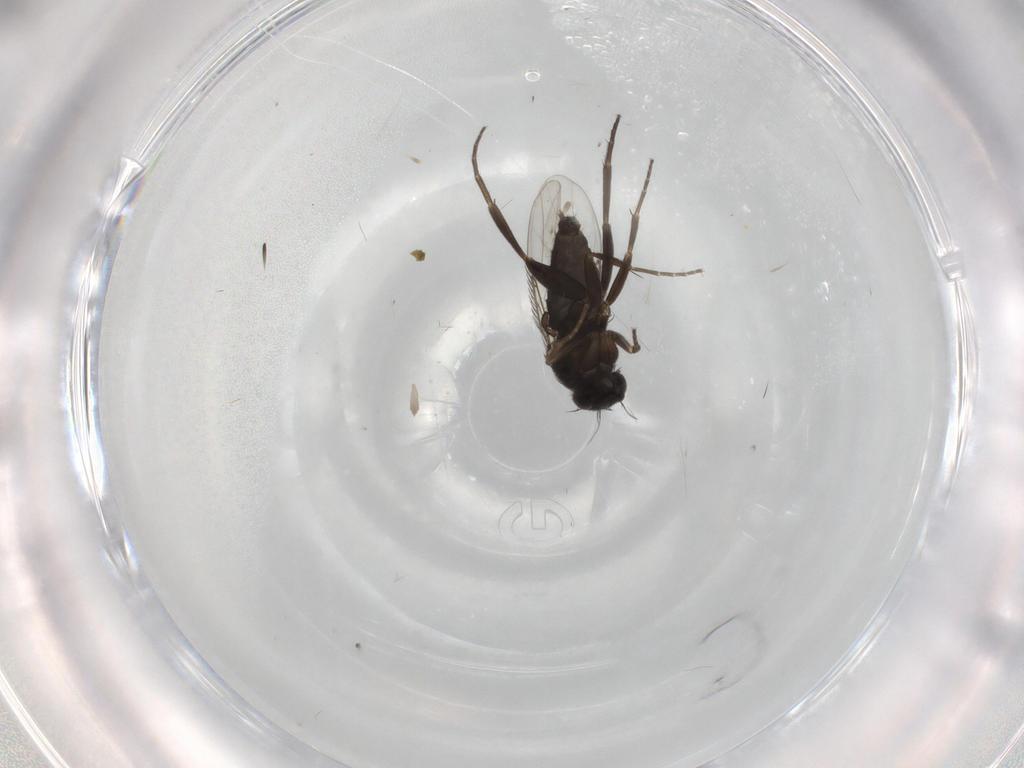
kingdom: Animalia
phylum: Arthropoda
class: Insecta
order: Diptera
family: Phoridae
